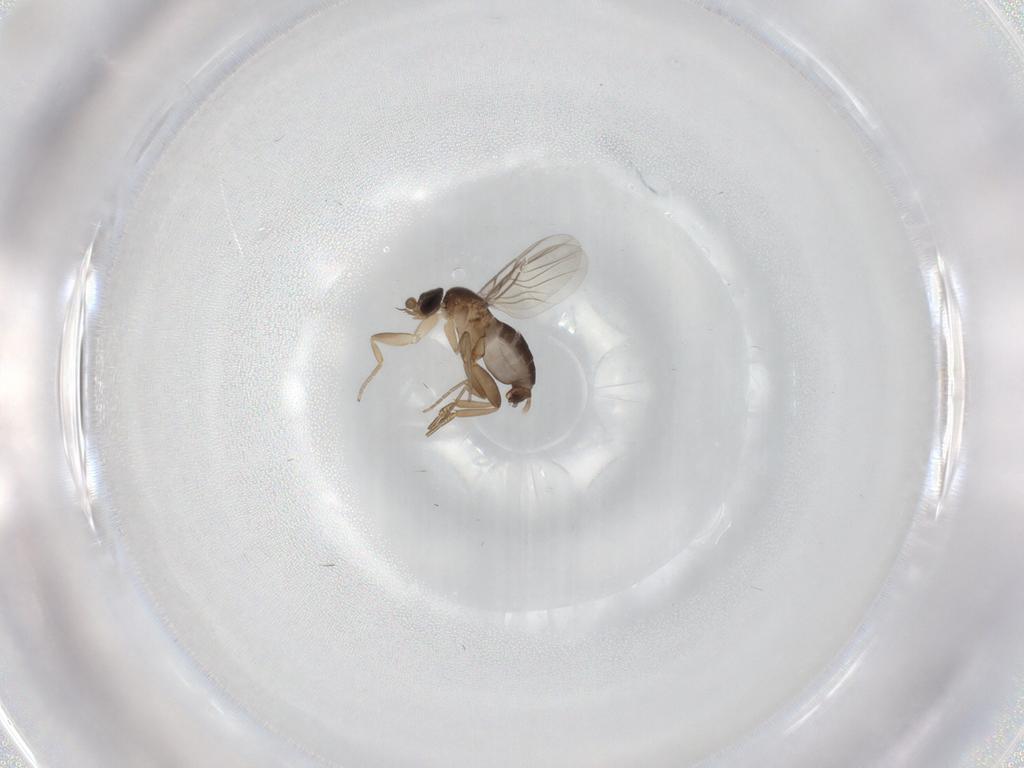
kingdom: Animalia
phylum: Arthropoda
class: Insecta
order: Diptera
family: Phoridae
